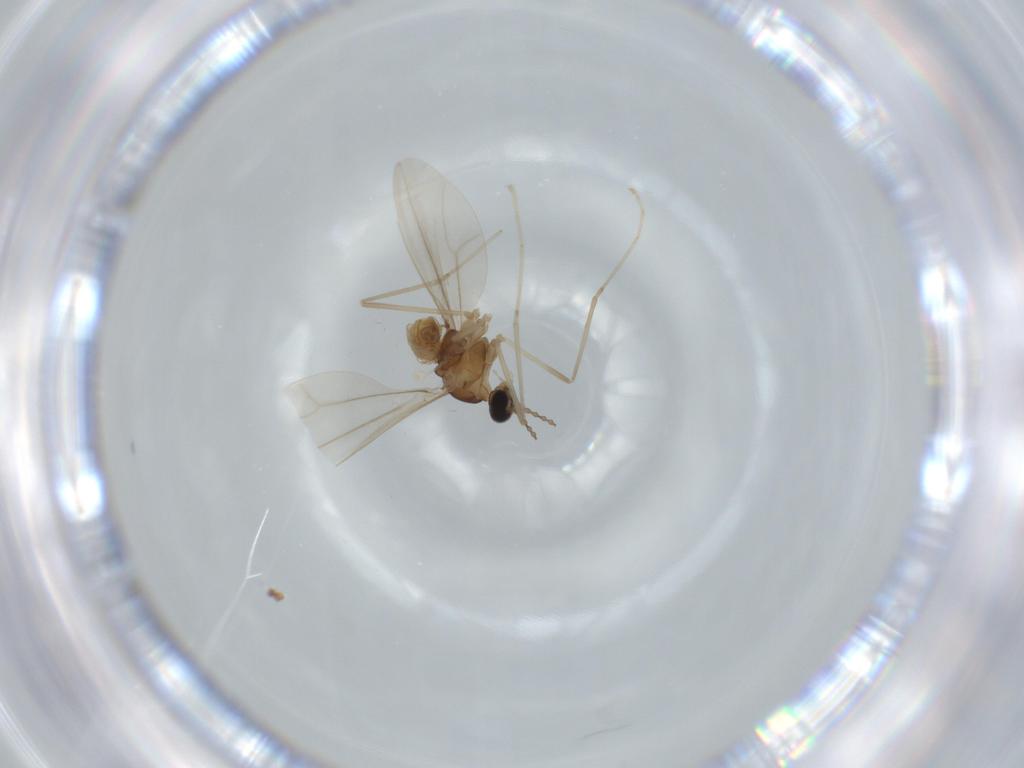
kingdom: Animalia
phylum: Arthropoda
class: Insecta
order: Diptera
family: Cecidomyiidae
